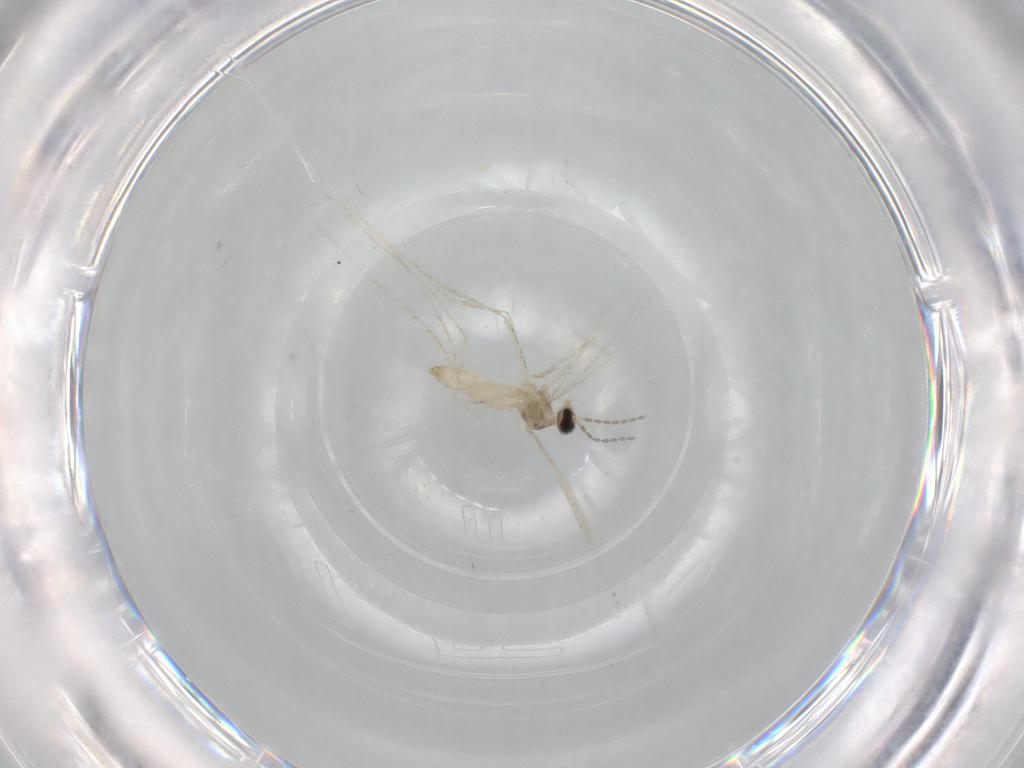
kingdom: Animalia
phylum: Arthropoda
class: Insecta
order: Diptera
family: Cecidomyiidae
